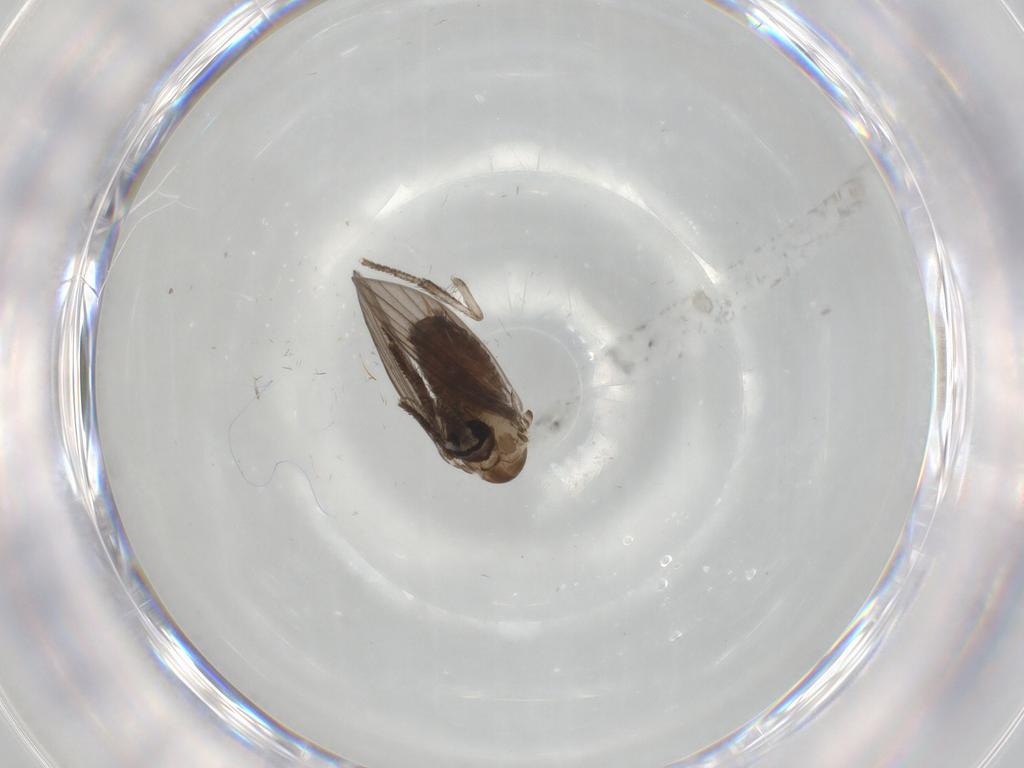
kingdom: Animalia
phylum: Arthropoda
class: Insecta
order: Diptera
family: Psychodidae
